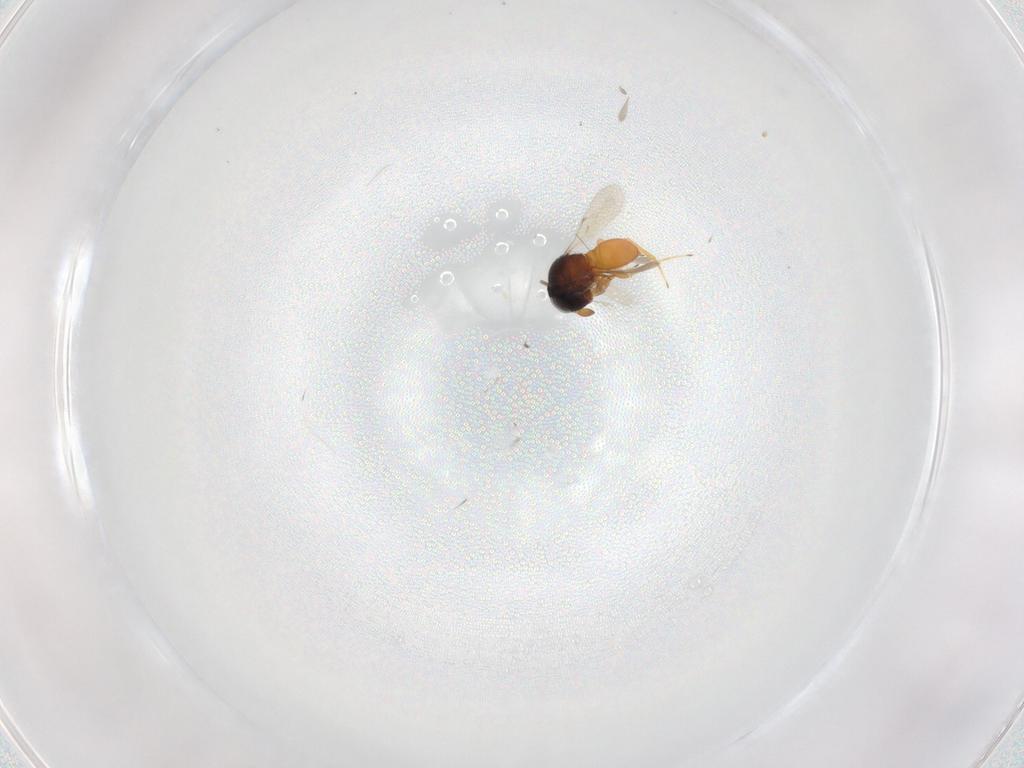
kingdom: Animalia
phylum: Arthropoda
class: Insecta
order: Hymenoptera
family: Scelionidae
